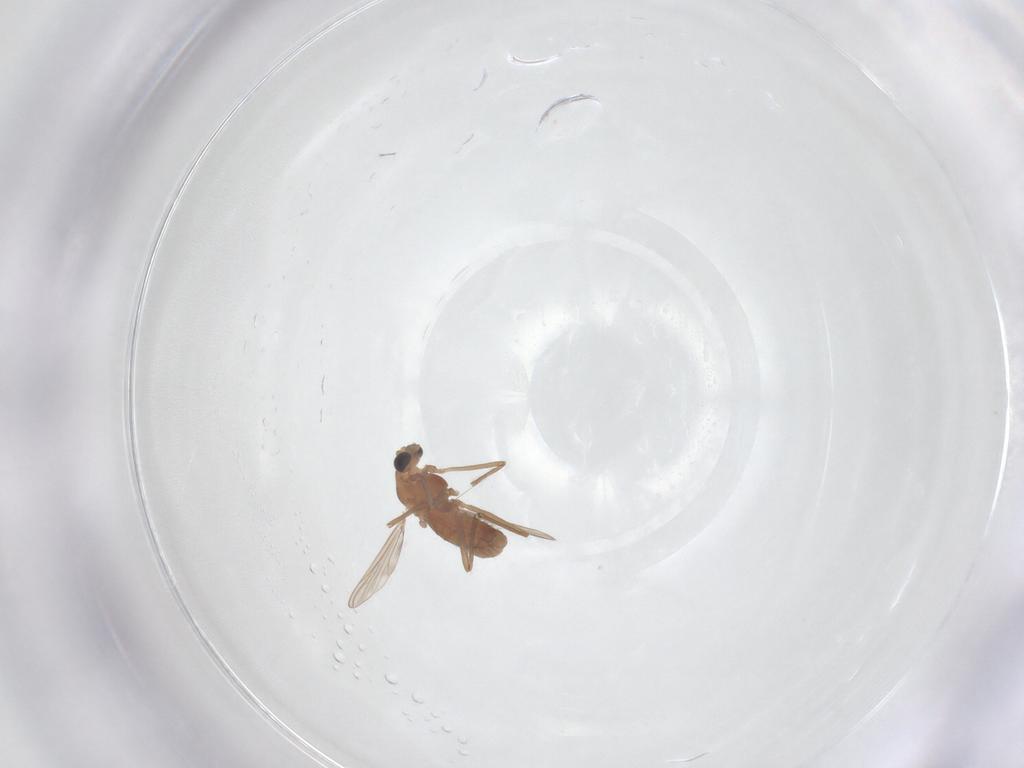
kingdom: Animalia
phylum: Arthropoda
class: Insecta
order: Diptera
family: Chironomidae
